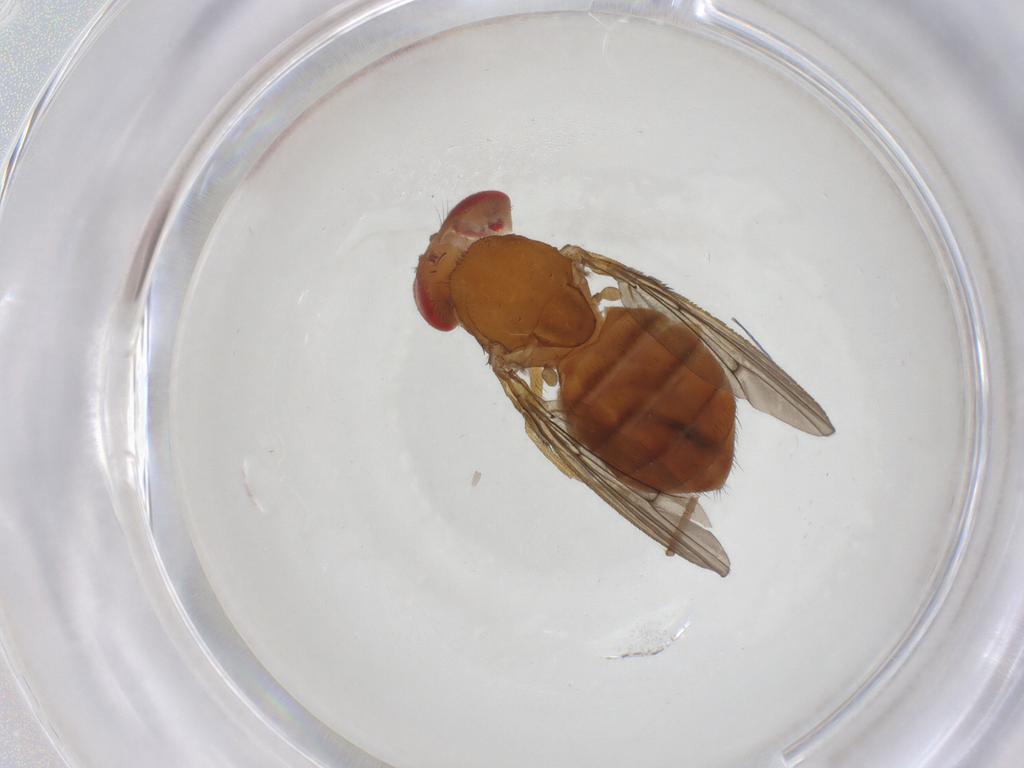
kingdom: Animalia
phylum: Arthropoda
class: Insecta
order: Diptera
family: Drosophilidae
